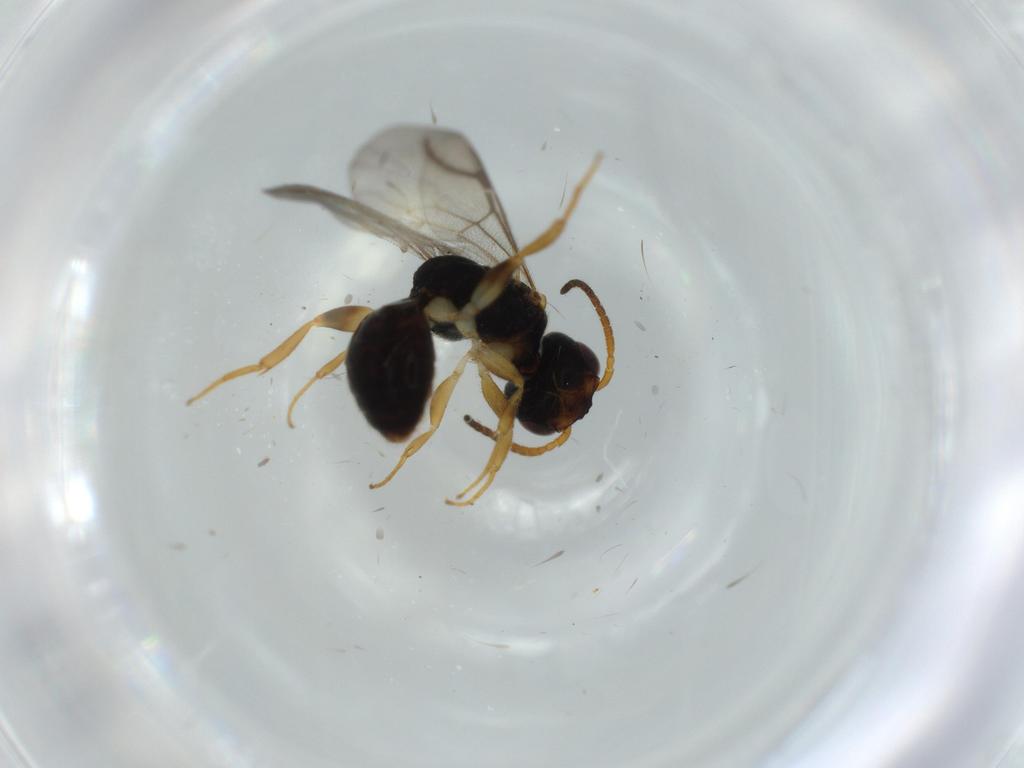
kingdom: Animalia
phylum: Arthropoda
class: Insecta
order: Hymenoptera
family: Bethylidae
